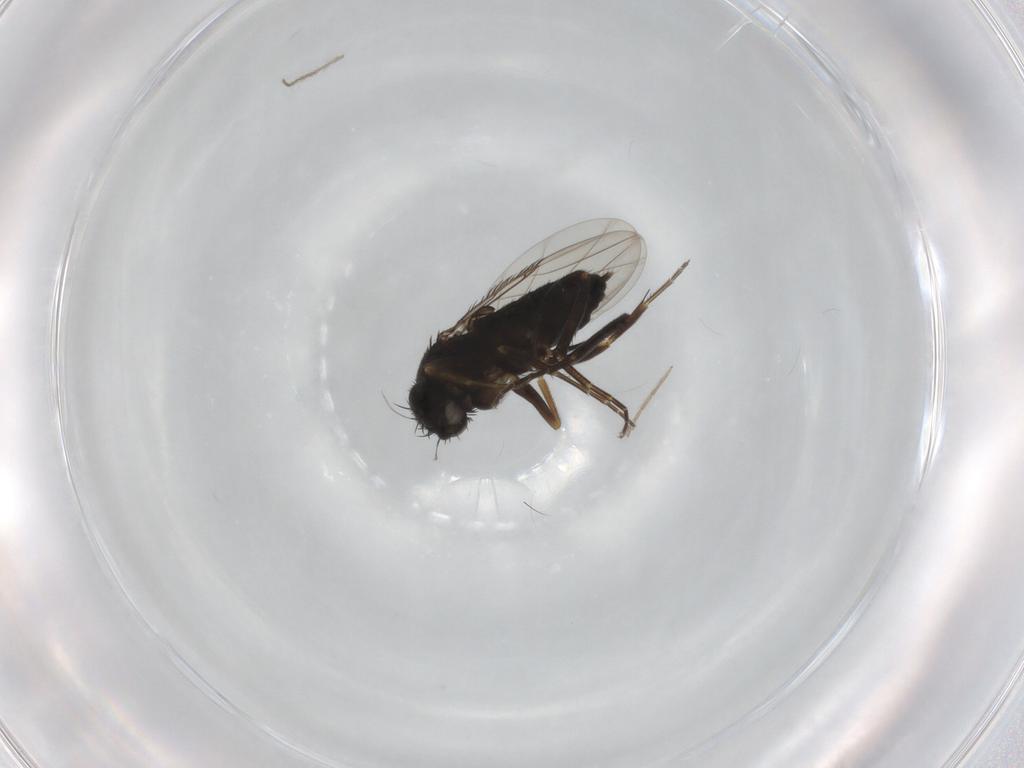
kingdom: Animalia
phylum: Arthropoda
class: Insecta
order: Diptera
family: Phoridae
